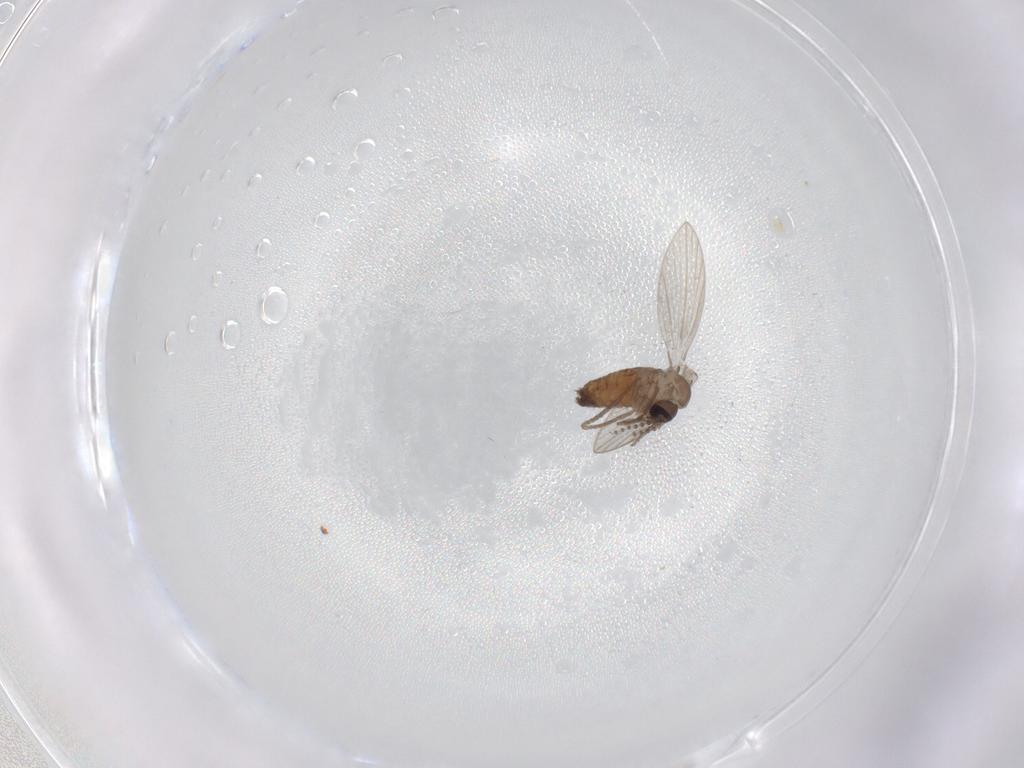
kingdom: Animalia
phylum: Arthropoda
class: Insecta
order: Diptera
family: Psychodidae
